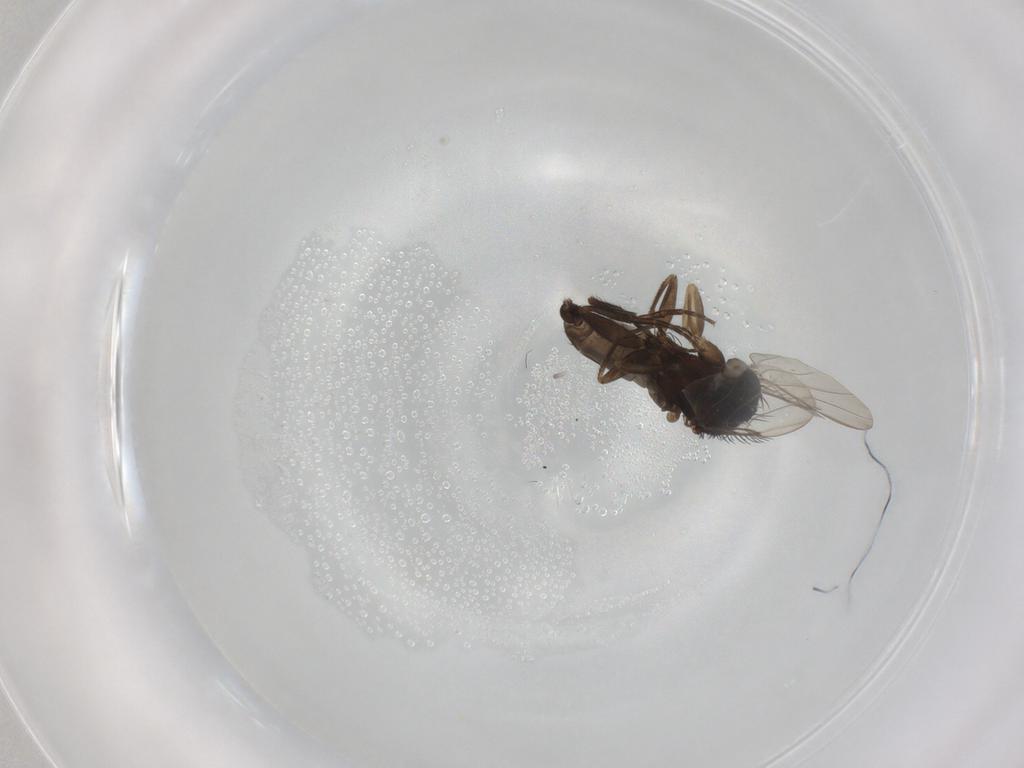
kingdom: Animalia
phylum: Arthropoda
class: Insecta
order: Diptera
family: Phoridae
